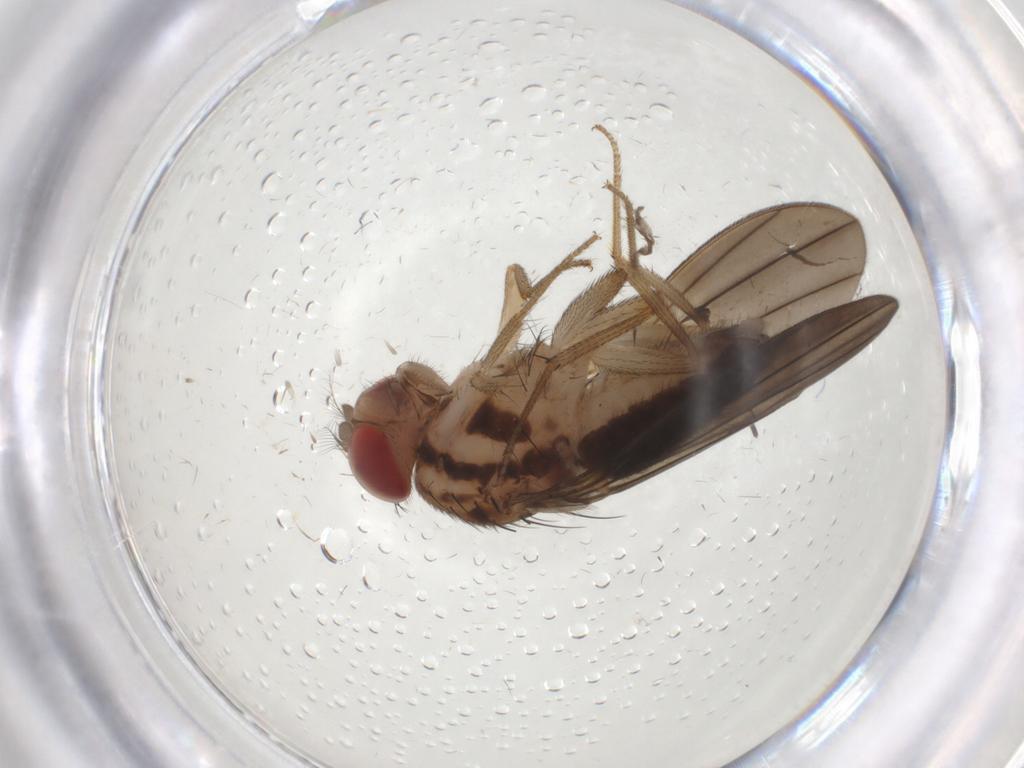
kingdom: Animalia
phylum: Arthropoda
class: Insecta
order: Diptera
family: Drosophilidae
